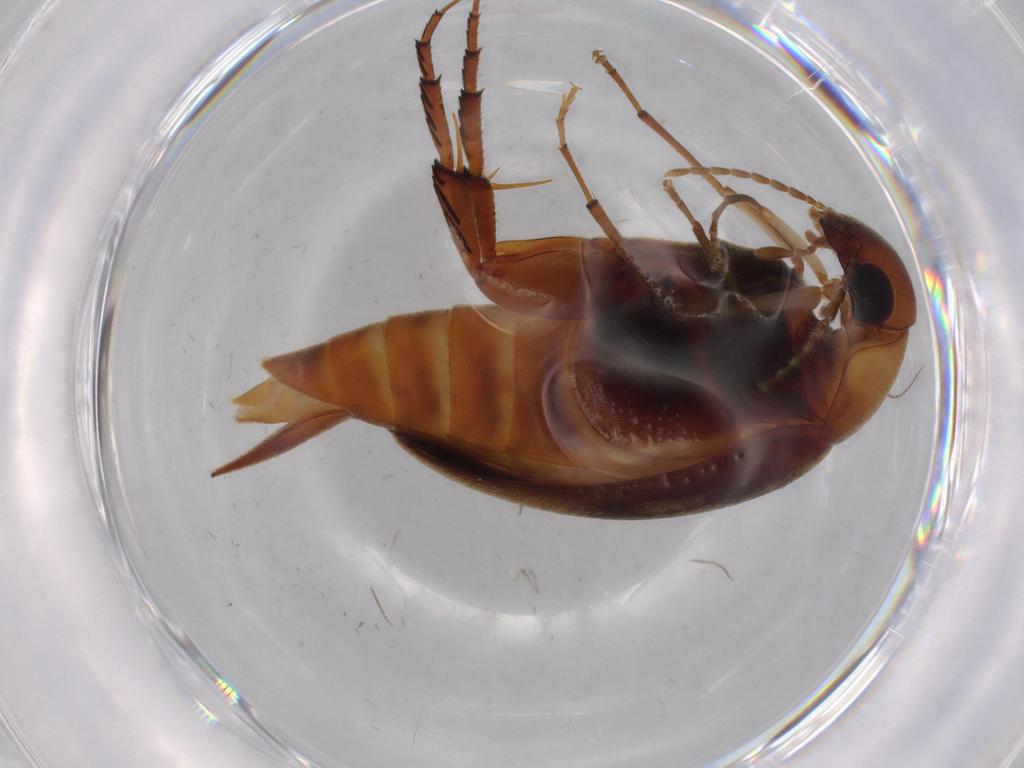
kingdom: Animalia
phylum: Arthropoda
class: Insecta
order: Coleoptera
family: Mordellidae
